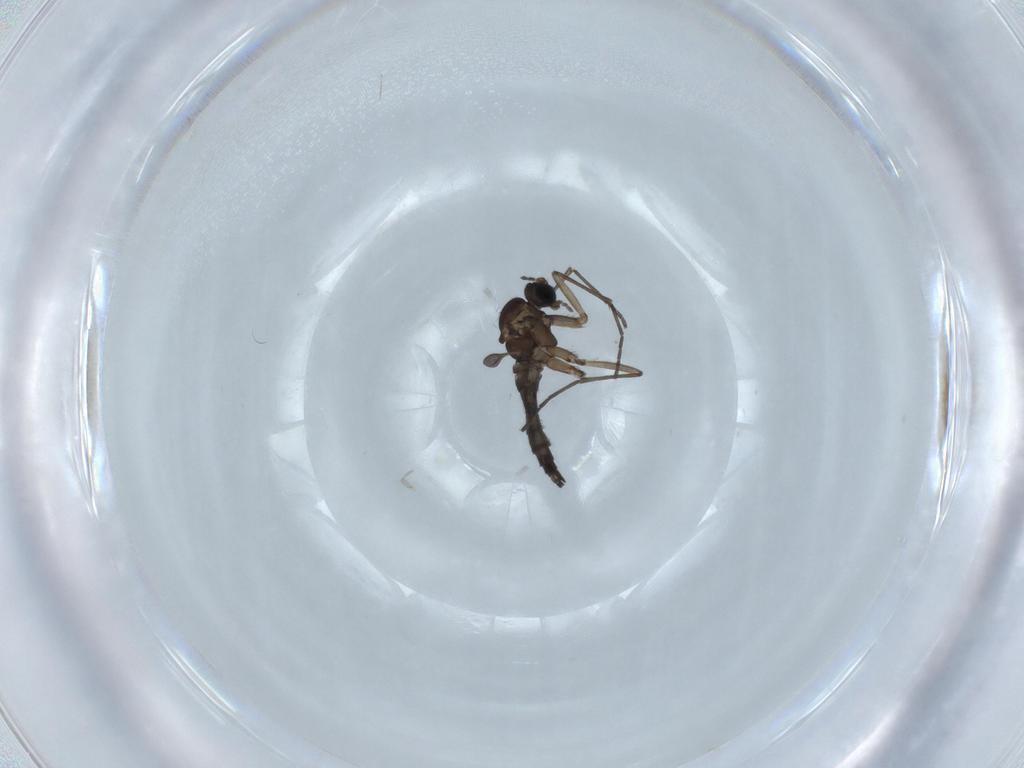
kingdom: Animalia
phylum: Arthropoda
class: Insecta
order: Diptera
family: Sciaridae
